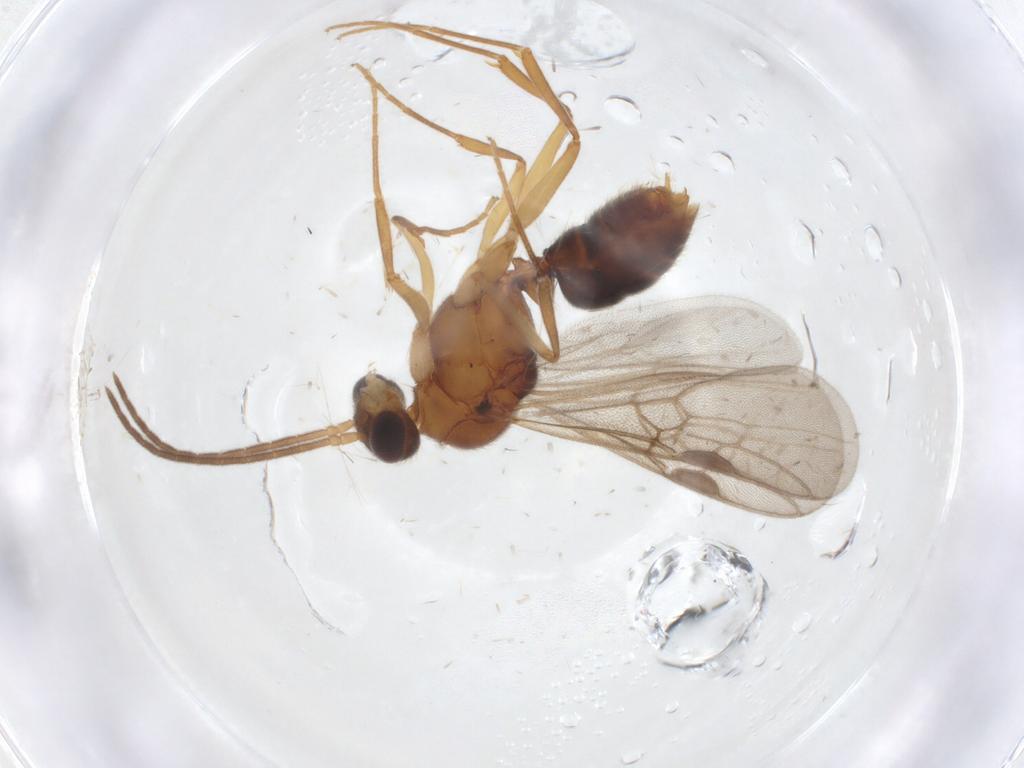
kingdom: Animalia
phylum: Arthropoda
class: Insecta
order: Hymenoptera
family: Formicidae
